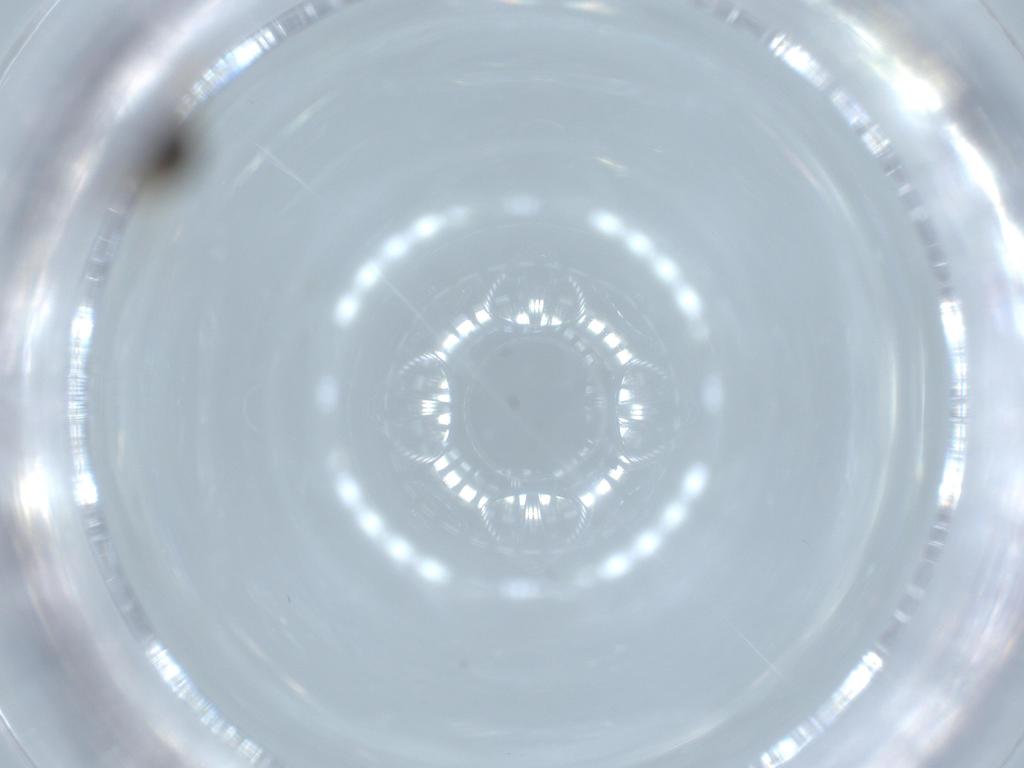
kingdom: Animalia
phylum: Arthropoda
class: Insecta
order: Hymenoptera
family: Scelionidae
